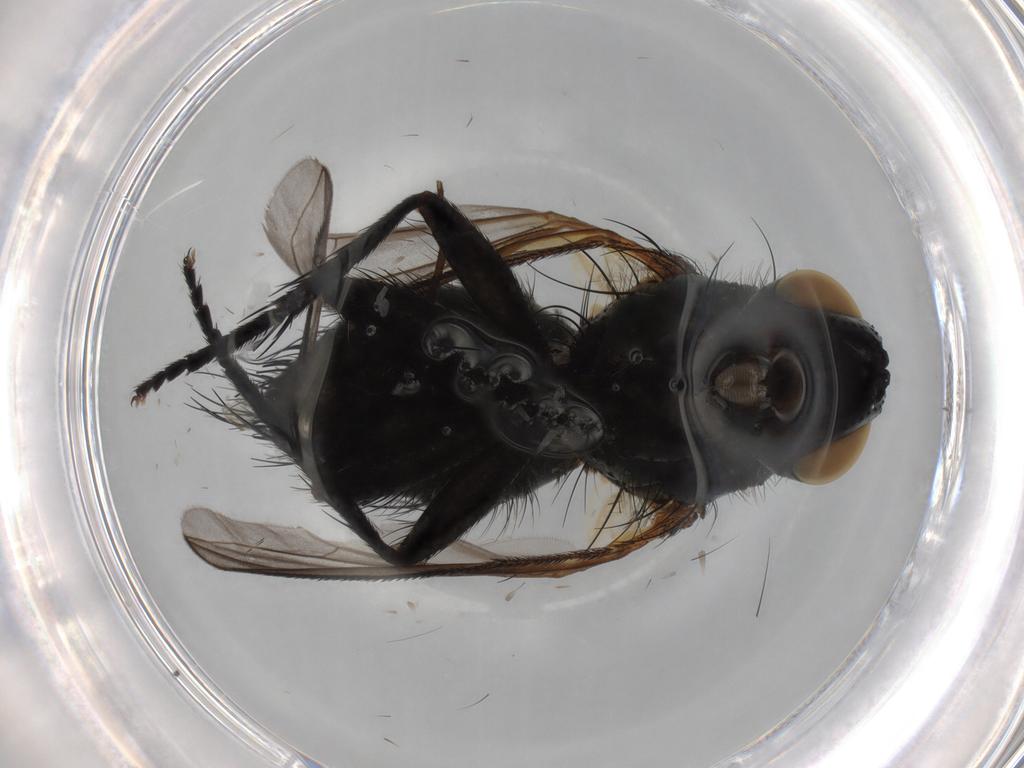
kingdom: Animalia
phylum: Arthropoda
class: Insecta
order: Diptera
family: Tachinidae
